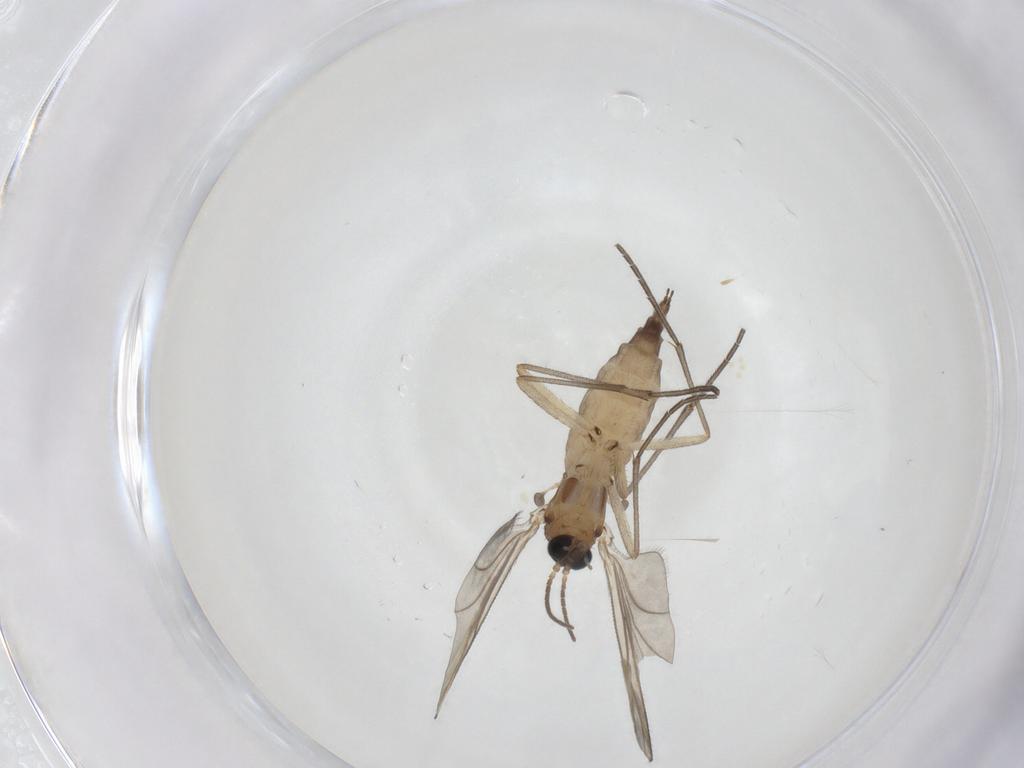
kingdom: Animalia
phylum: Arthropoda
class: Insecta
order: Diptera
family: Sciaridae
